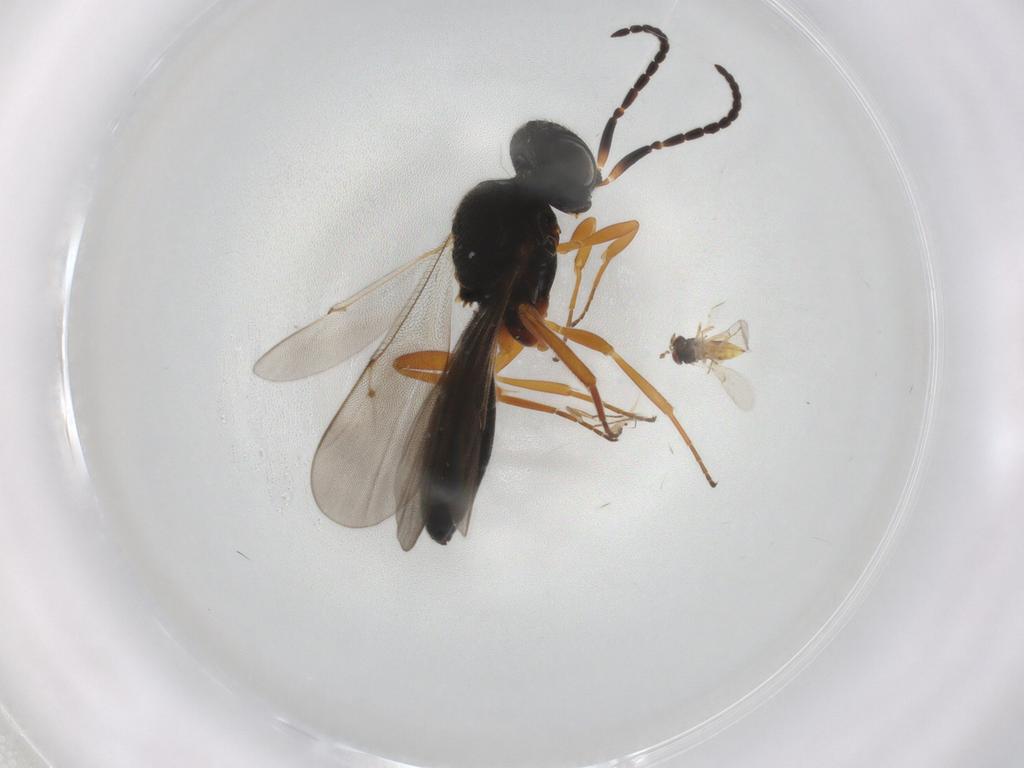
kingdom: Animalia
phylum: Arthropoda
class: Insecta
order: Hymenoptera
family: Scelionidae
